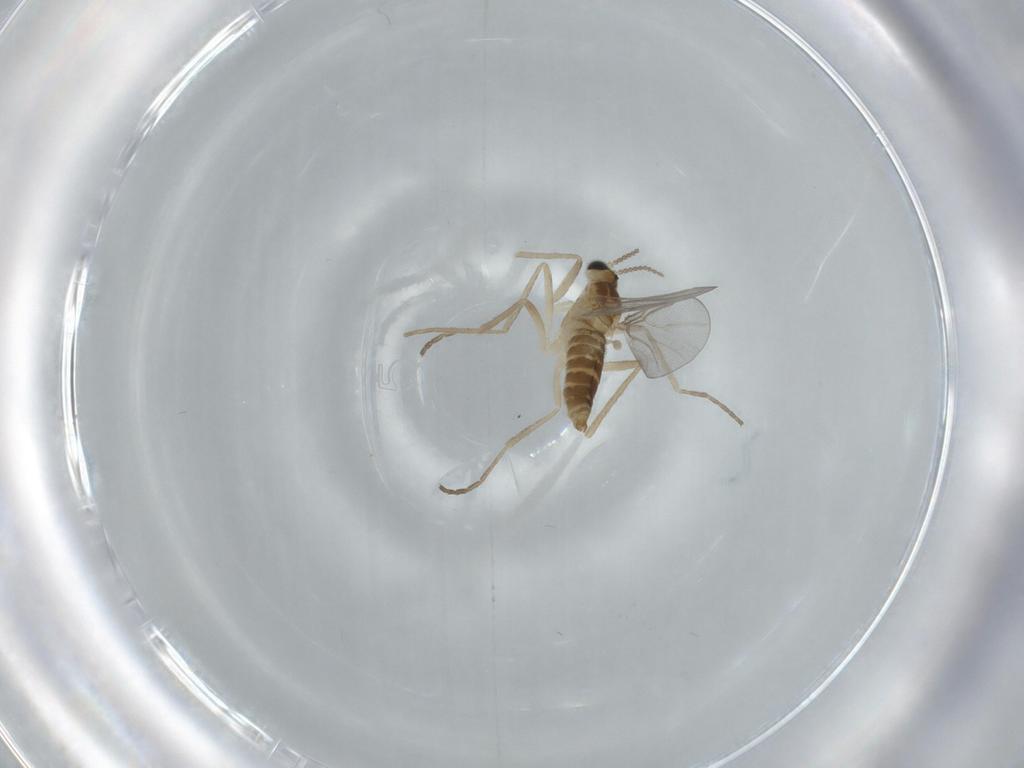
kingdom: Animalia
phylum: Arthropoda
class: Insecta
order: Diptera
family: Cecidomyiidae
